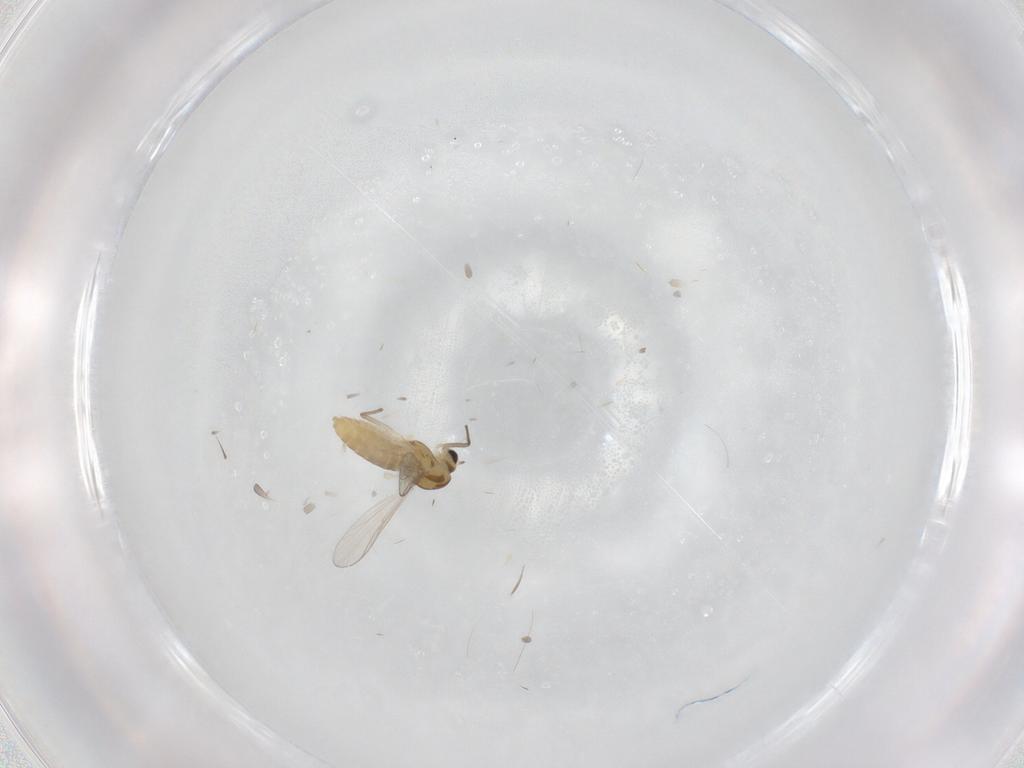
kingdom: Animalia
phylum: Arthropoda
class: Insecta
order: Diptera
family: Chironomidae
